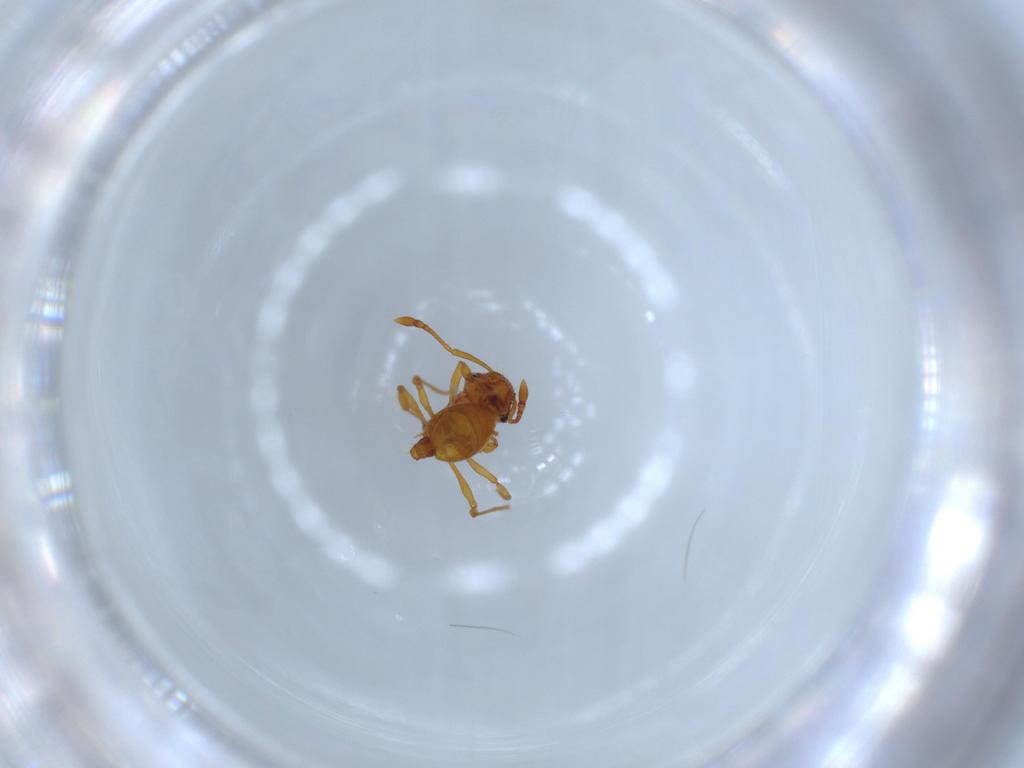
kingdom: Animalia
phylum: Arthropoda
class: Insecta
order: Hymenoptera
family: Formicidae
